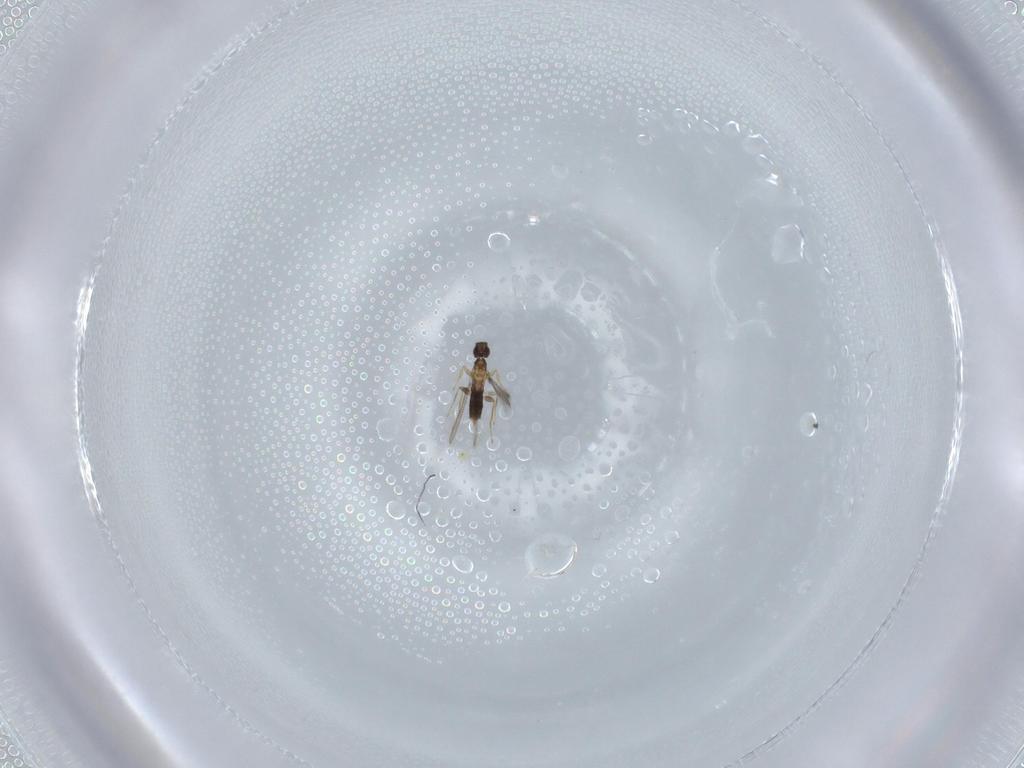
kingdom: Animalia
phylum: Arthropoda
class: Insecta
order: Hymenoptera
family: Mymaridae
